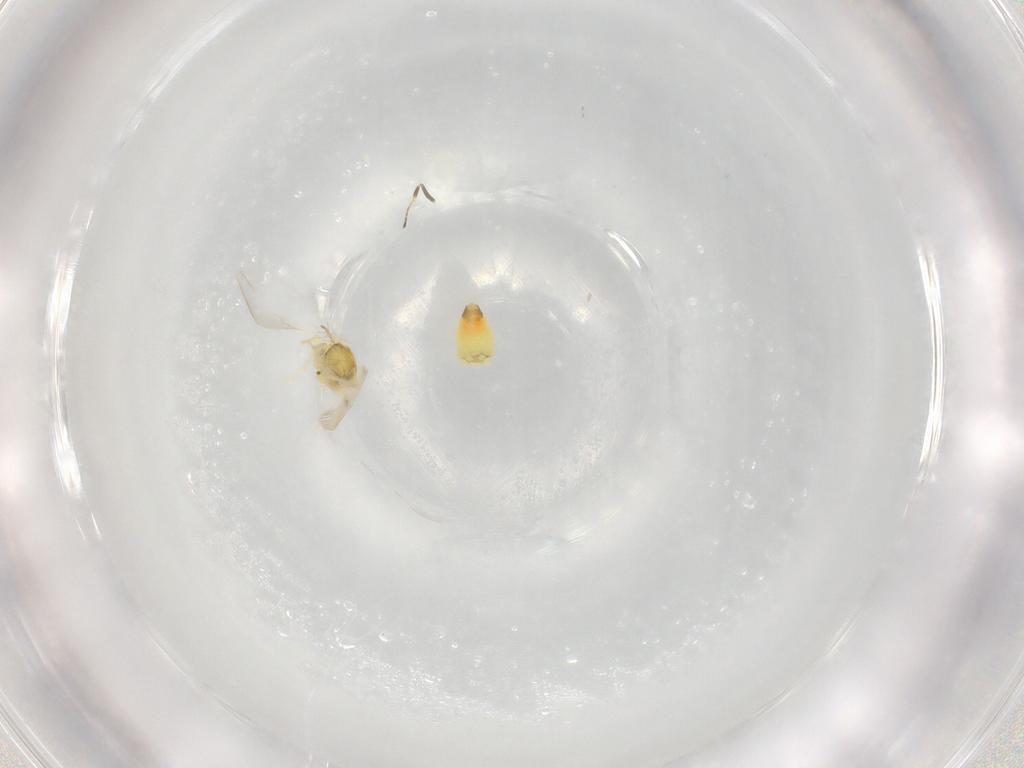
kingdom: Animalia
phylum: Arthropoda
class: Insecta
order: Hemiptera
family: Aleyrodidae
